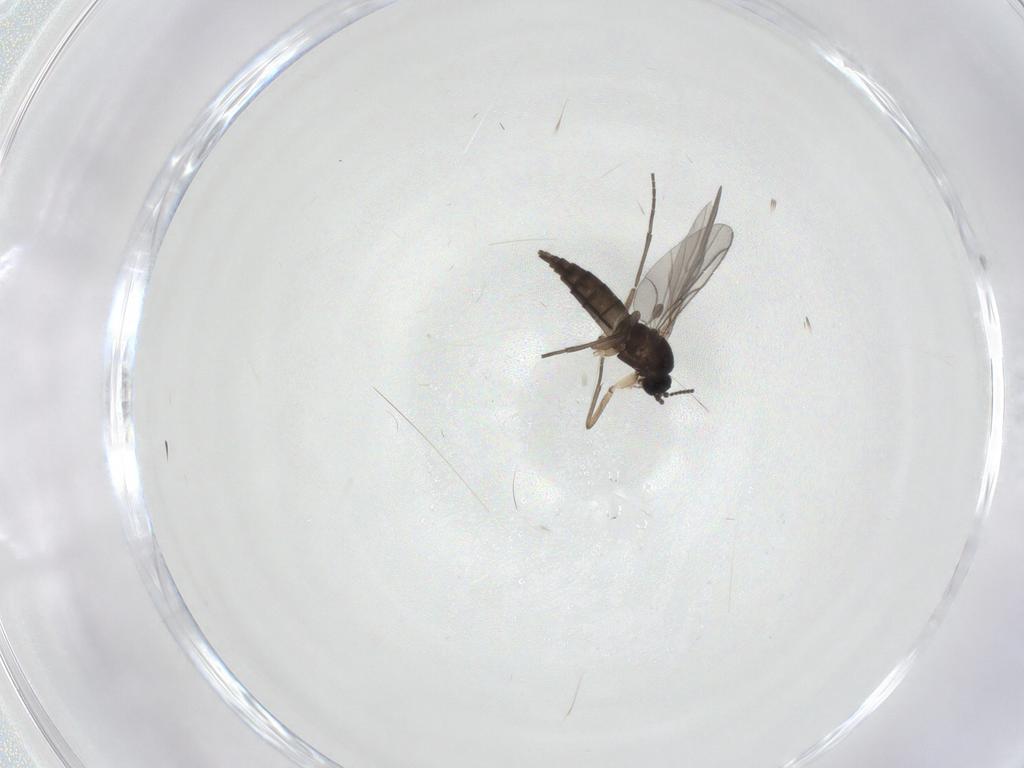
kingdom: Animalia
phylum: Arthropoda
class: Insecta
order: Diptera
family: Sciaridae
